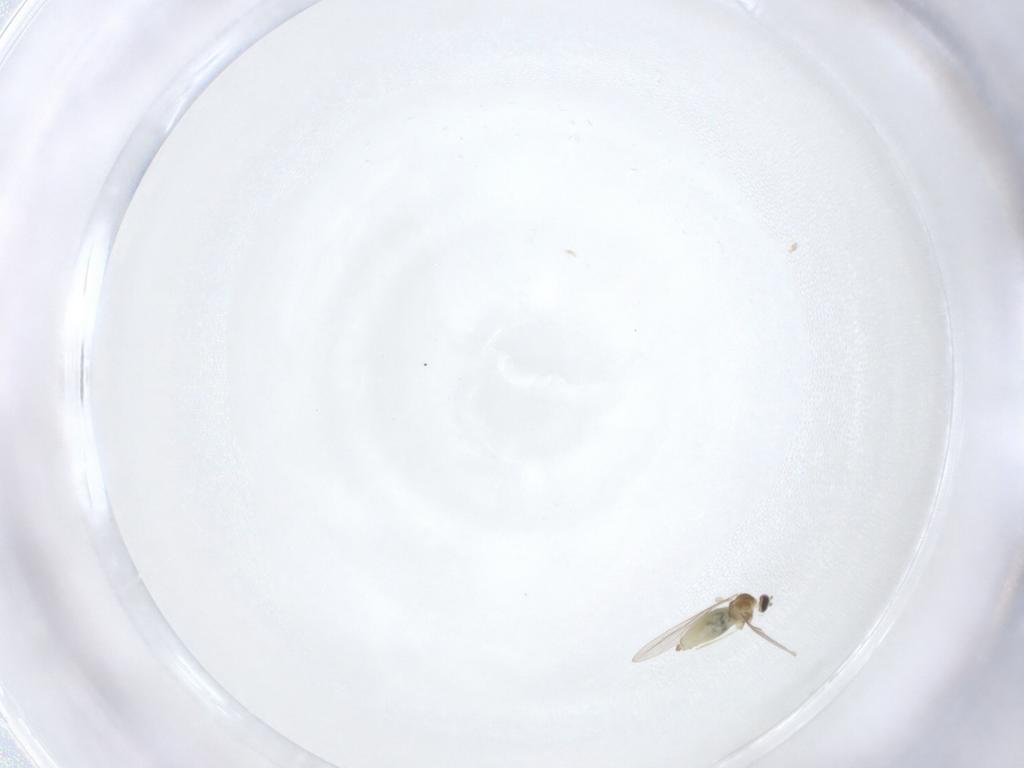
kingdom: Animalia
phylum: Arthropoda
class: Insecta
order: Diptera
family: Cecidomyiidae
